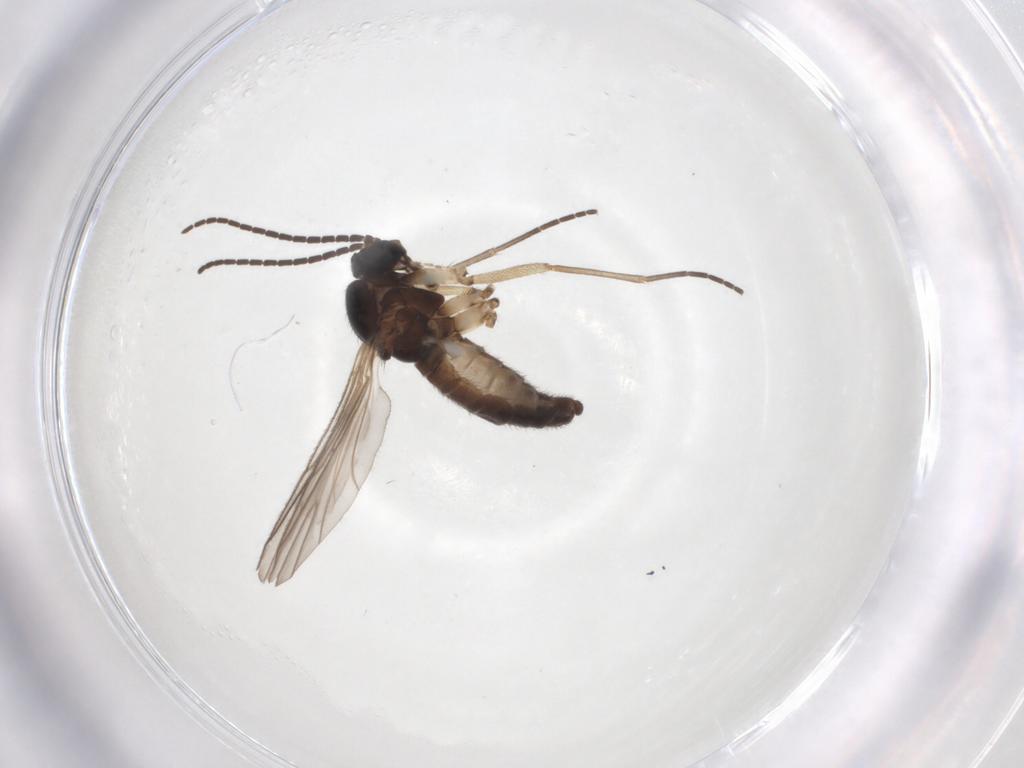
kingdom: Animalia
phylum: Arthropoda
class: Insecta
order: Diptera
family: Sciaridae
